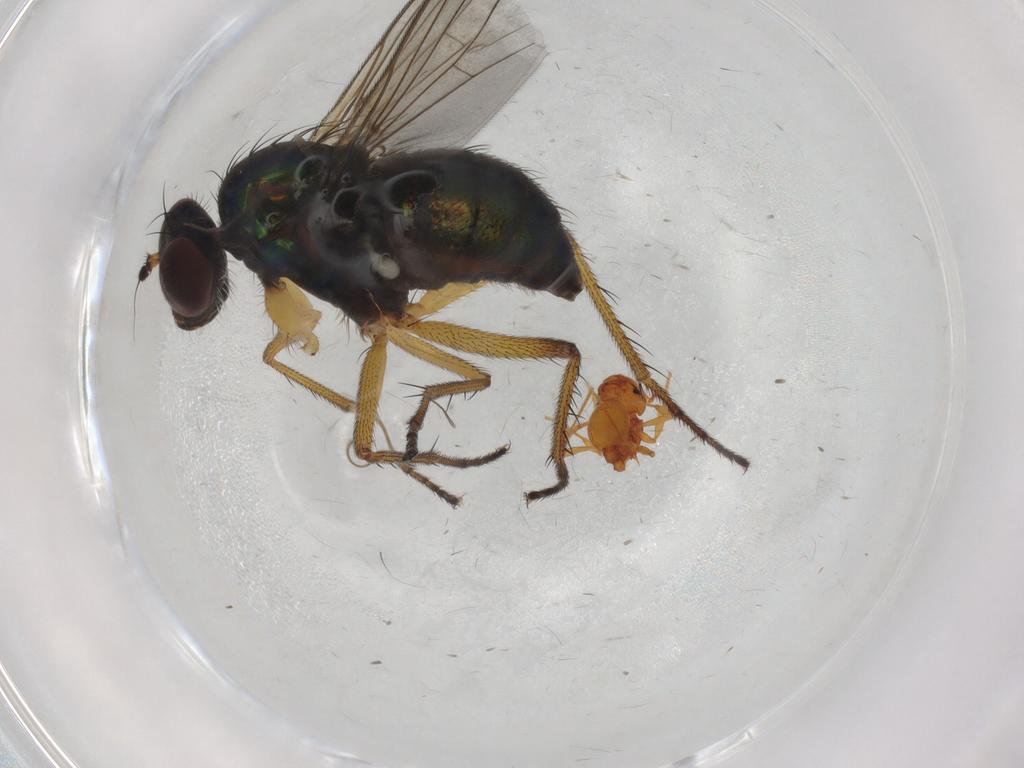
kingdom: Animalia
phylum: Arthropoda
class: Insecta
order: Diptera
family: Chironomidae
